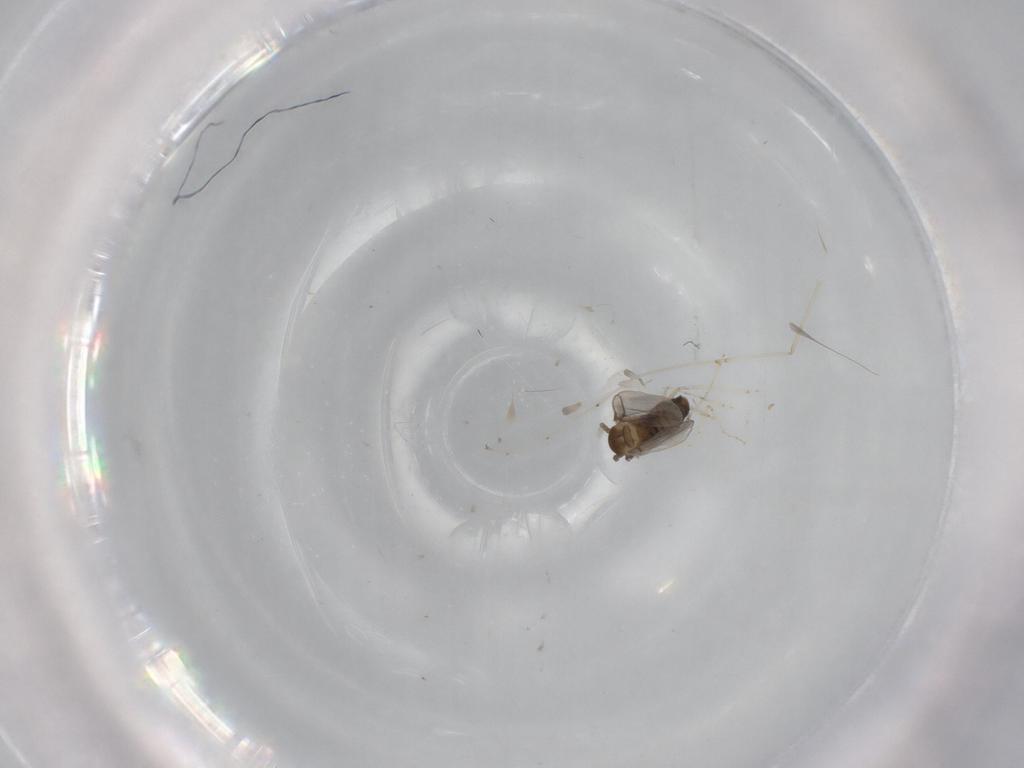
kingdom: Animalia
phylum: Arthropoda
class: Insecta
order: Diptera
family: Cecidomyiidae
